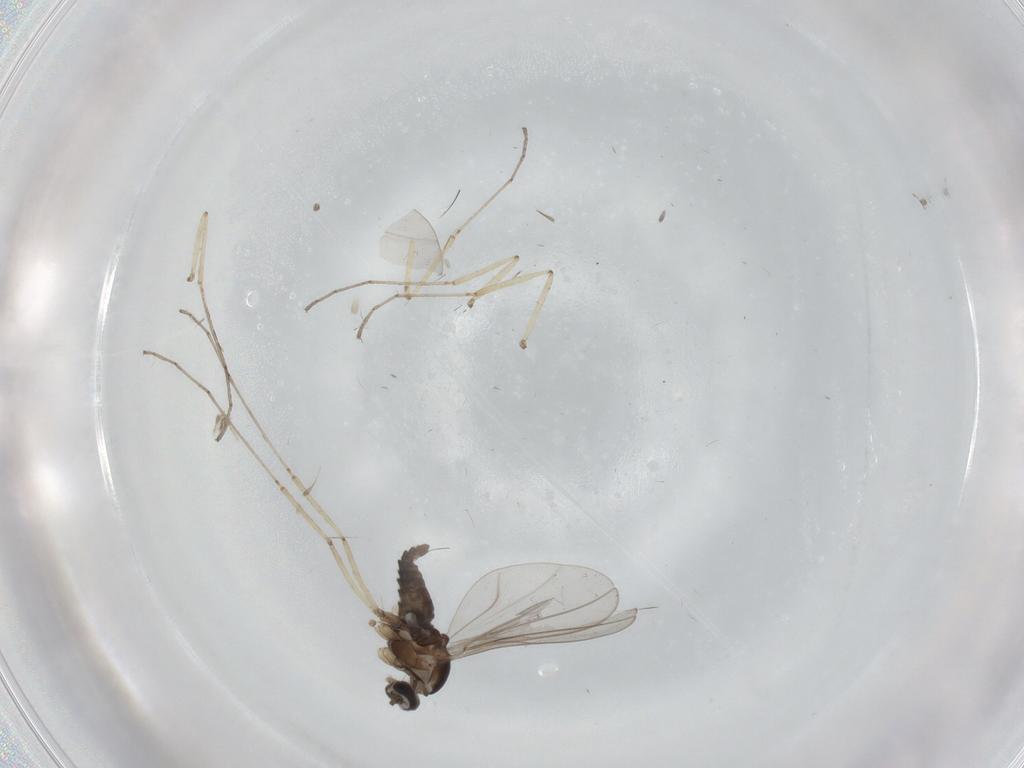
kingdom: Animalia
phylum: Arthropoda
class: Insecta
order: Diptera
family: Cecidomyiidae
